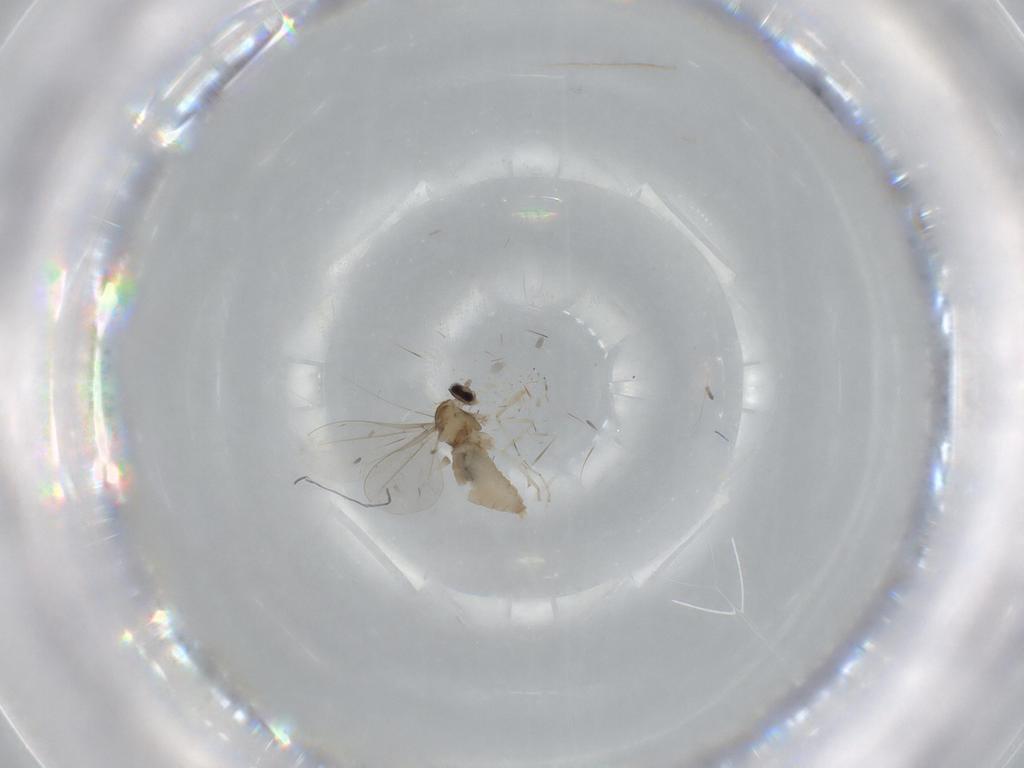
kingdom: Animalia
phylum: Arthropoda
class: Insecta
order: Diptera
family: Cecidomyiidae
